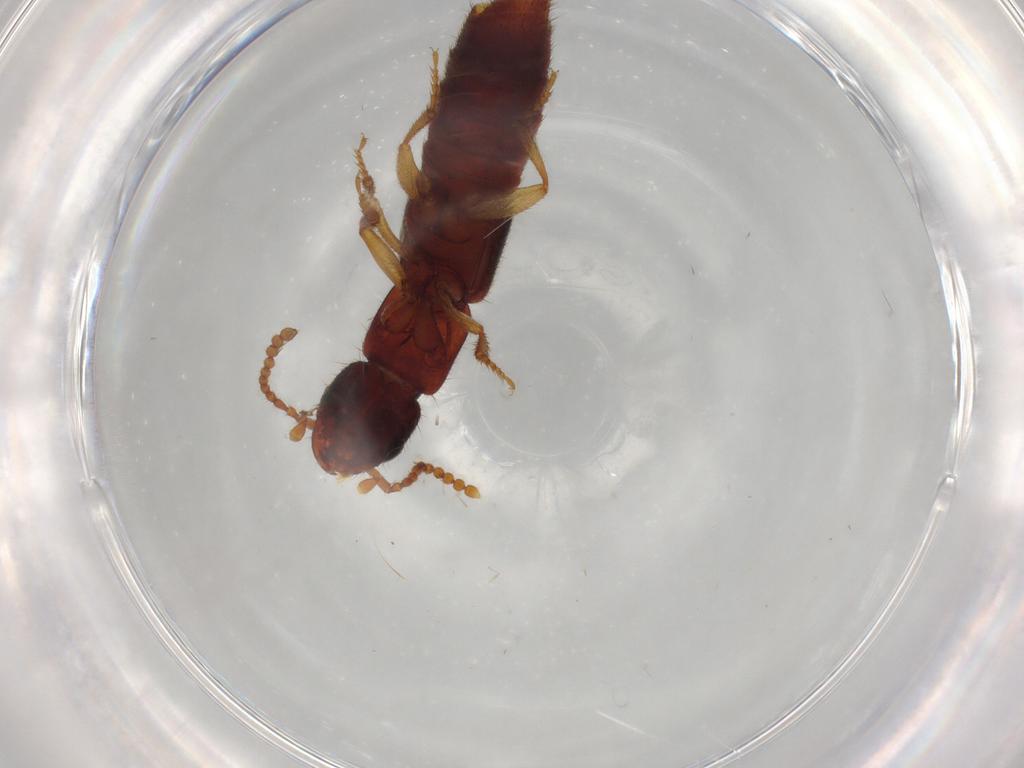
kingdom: Animalia
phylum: Arthropoda
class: Insecta
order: Coleoptera
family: Scarabaeidae
